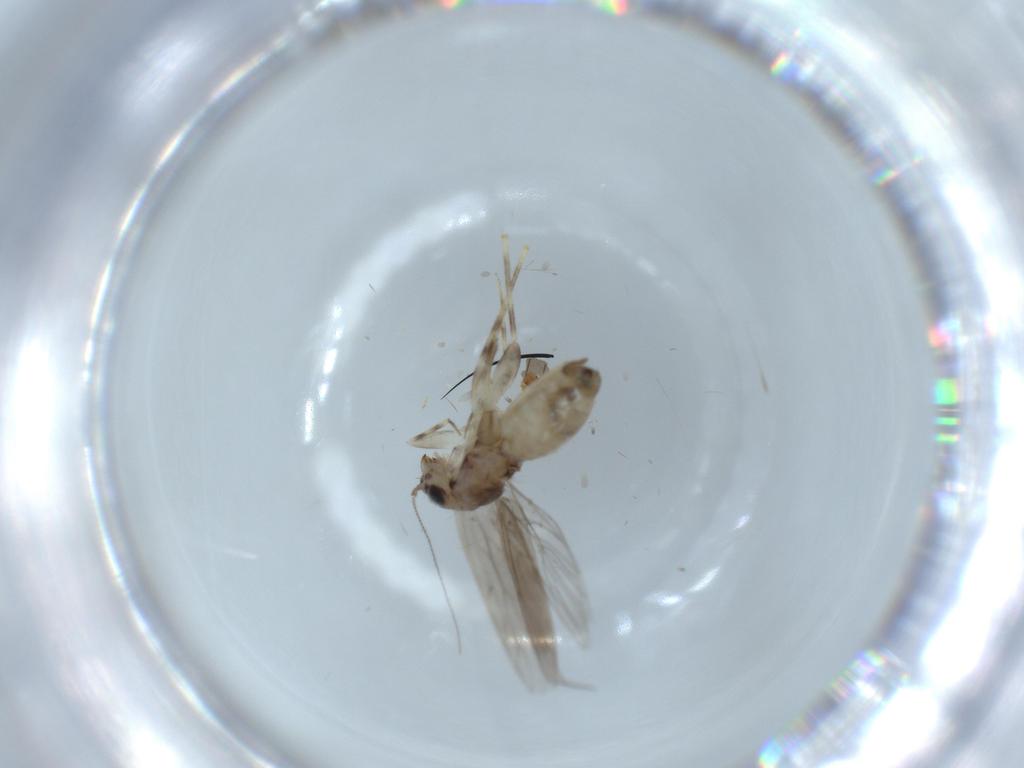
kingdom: Animalia
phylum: Arthropoda
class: Insecta
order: Psocodea
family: Lepidopsocidae
